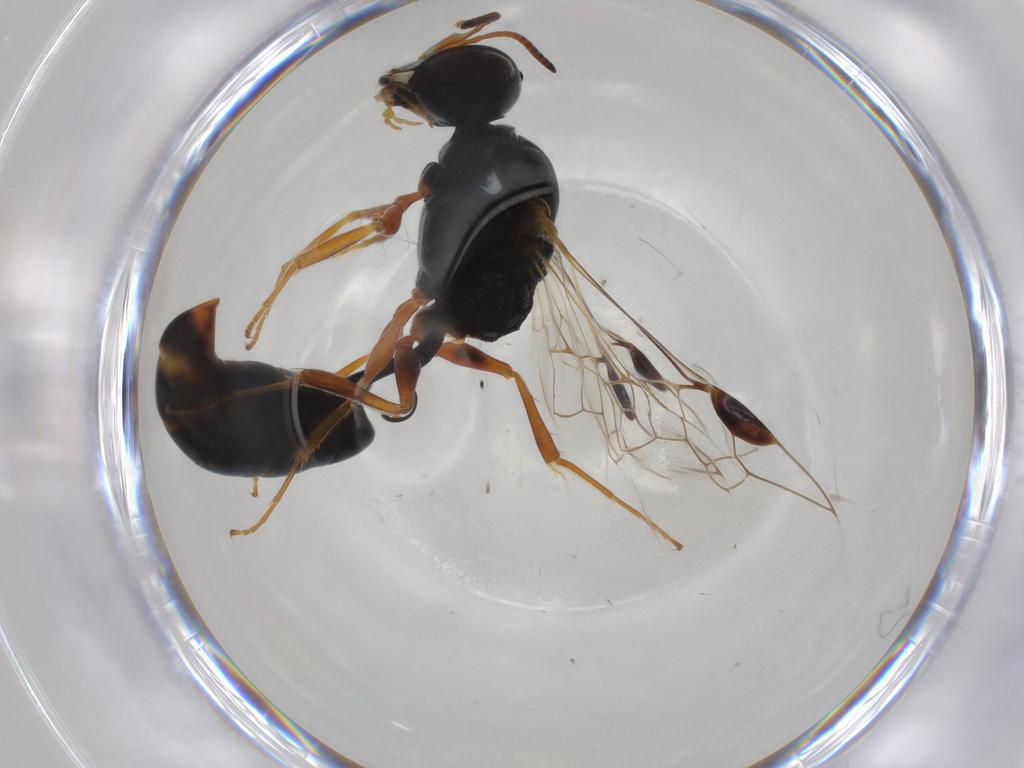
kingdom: Animalia
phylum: Arthropoda
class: Insecta
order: Hymenoptera
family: Crabronidae
